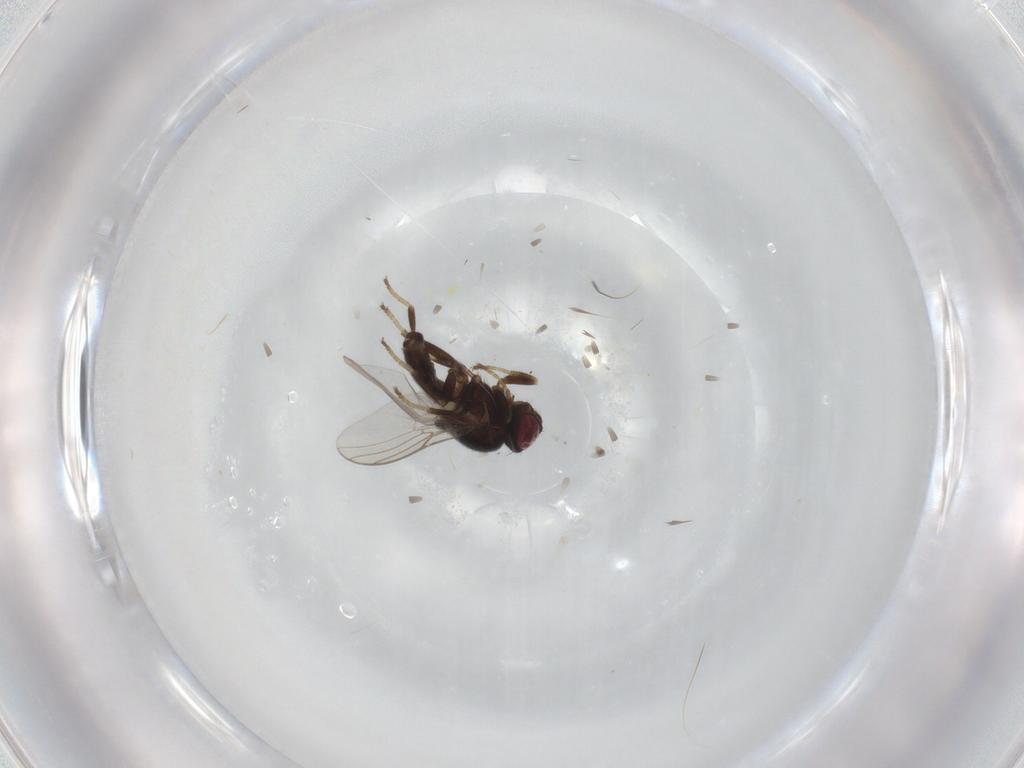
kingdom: Animalia
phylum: Arthropoda
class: Insecta
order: Diptera
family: Chloropidae
